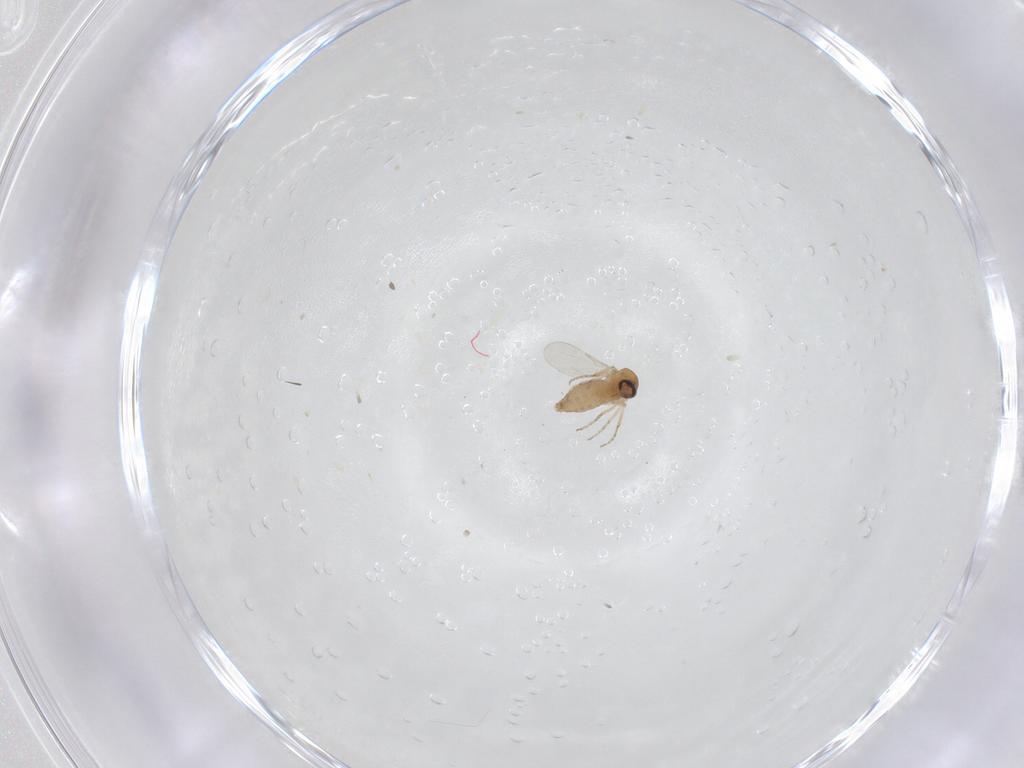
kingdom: Animalia
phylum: Arthropoda
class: Insecta
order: Diptera
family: Ceratopogonidae
